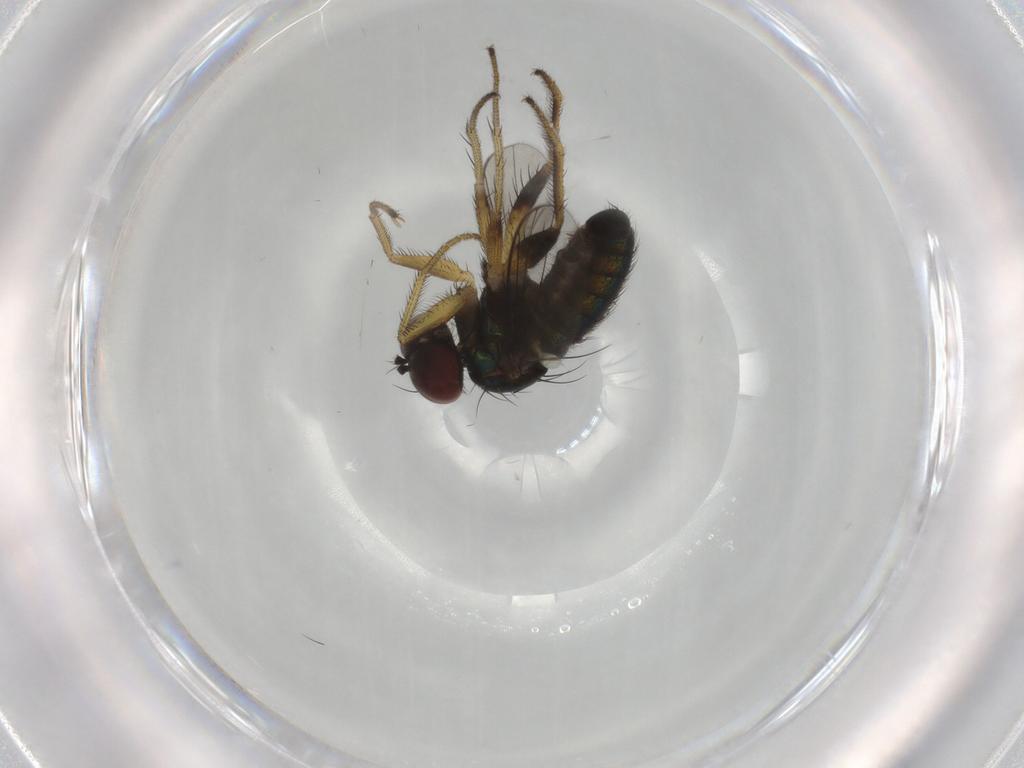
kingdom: Animalia
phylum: Arthropoda
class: Insecta
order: Diptera
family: Dolichopodidae
